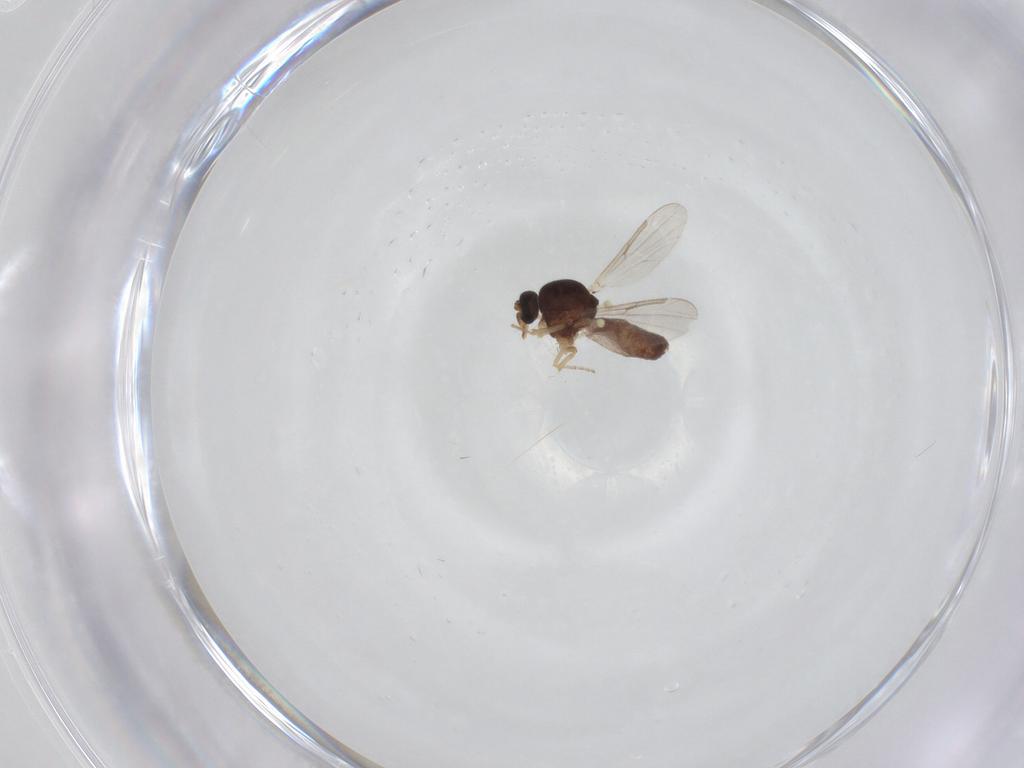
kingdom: Animalia
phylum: Arthropoda
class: Insecta
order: Diptera
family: Ceratopogonidae
